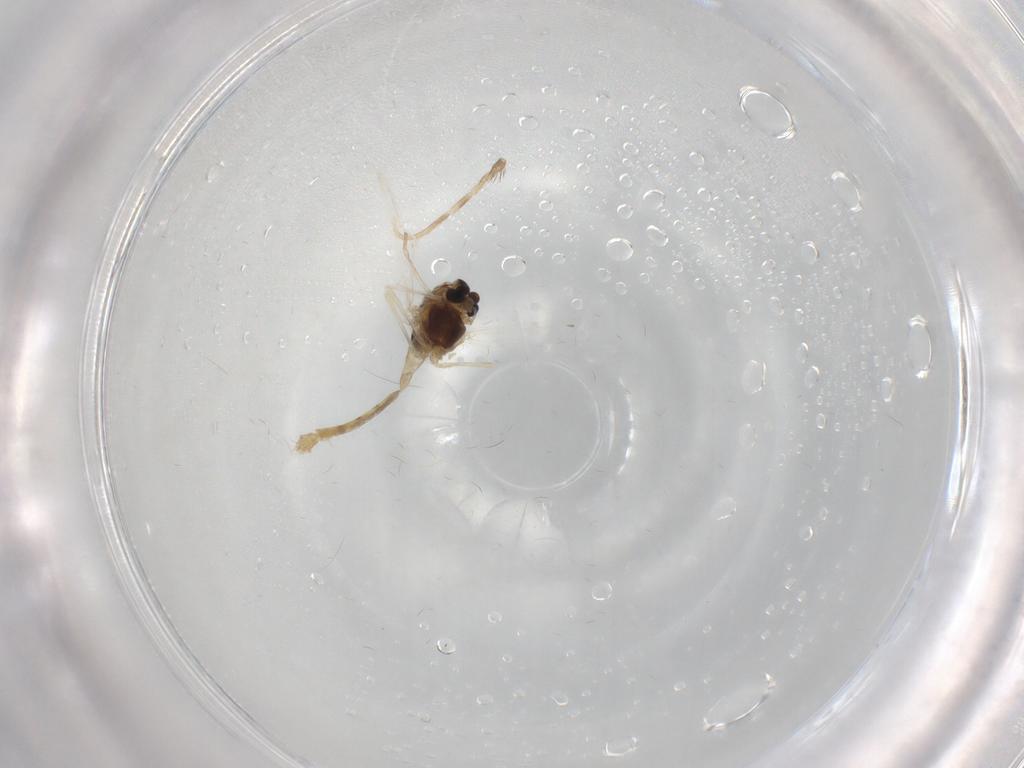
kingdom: Animalia
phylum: Arthropoda
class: Insecta
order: Diptera
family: Chironomidae
